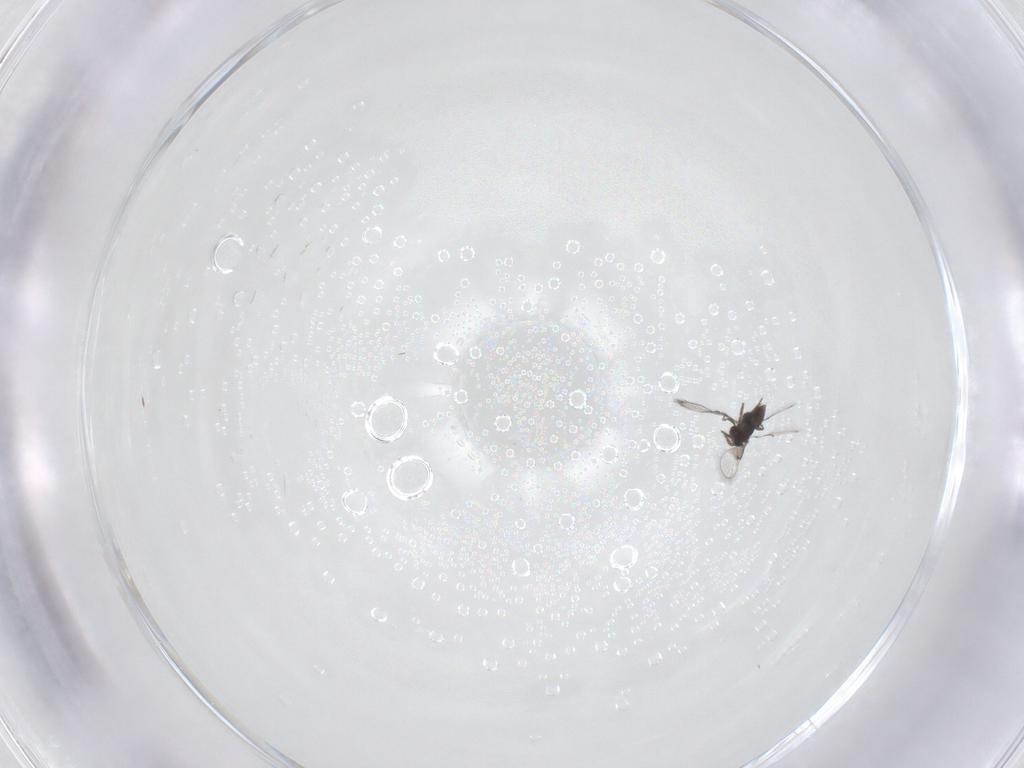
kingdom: Animalia
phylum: Arthropoda
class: Insecta
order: Hymenoptera
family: Trichogrammatidae
